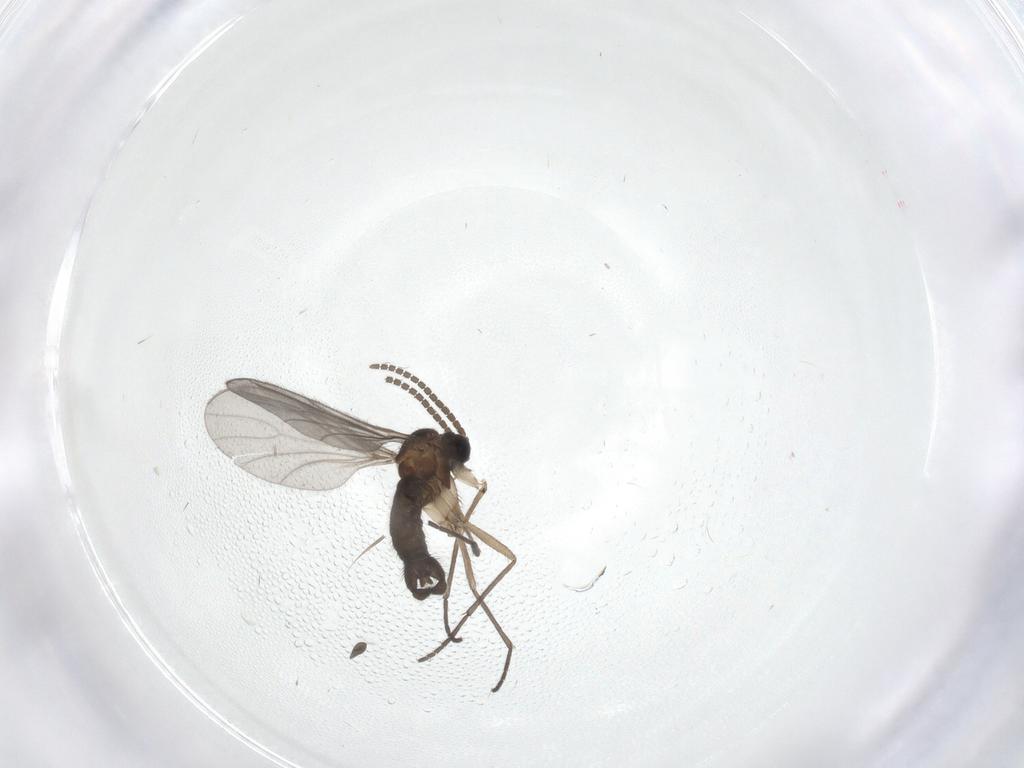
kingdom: Animalia
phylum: Arthropoda
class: Insecta
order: Diptera
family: Sciaridae
